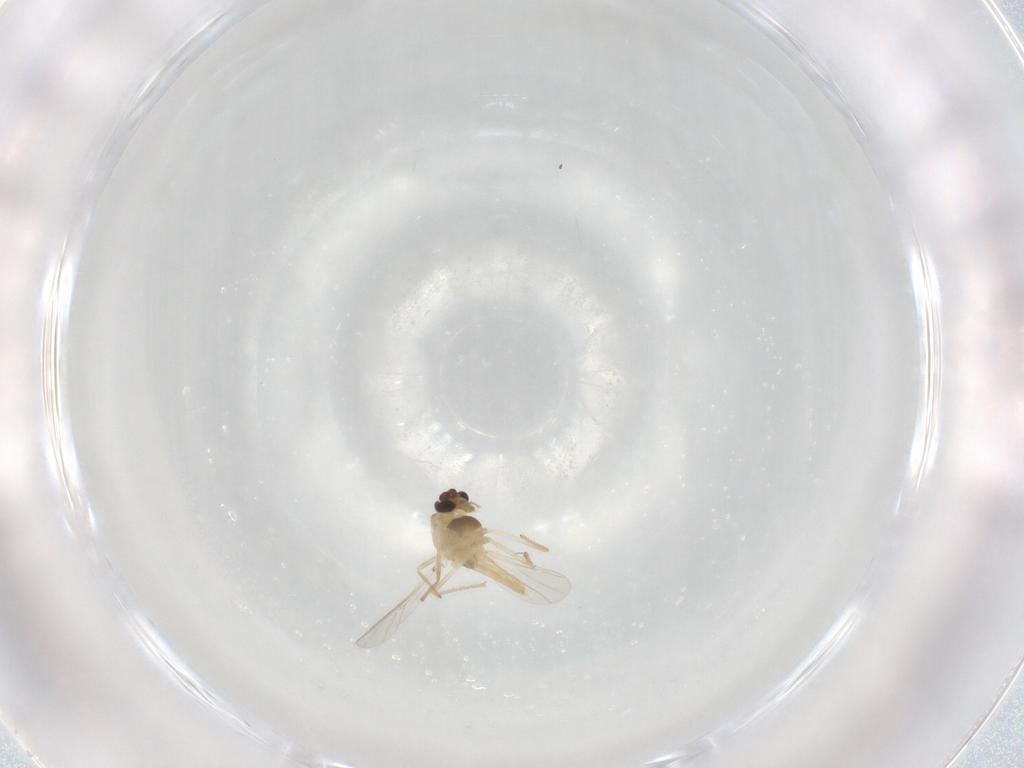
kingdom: Animalia
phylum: Arthropoda
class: Insecta
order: Diptera
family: Chironomidae
